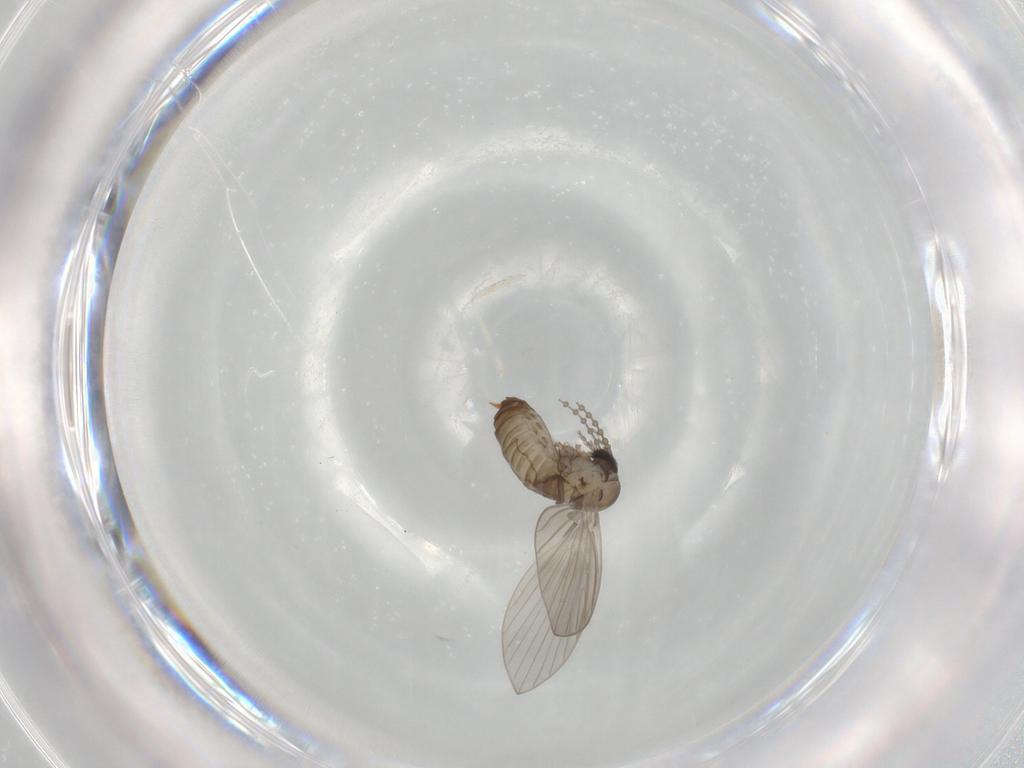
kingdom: Animalia
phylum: Arthropoda
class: Insecta
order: Diptera
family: Psychodidae
